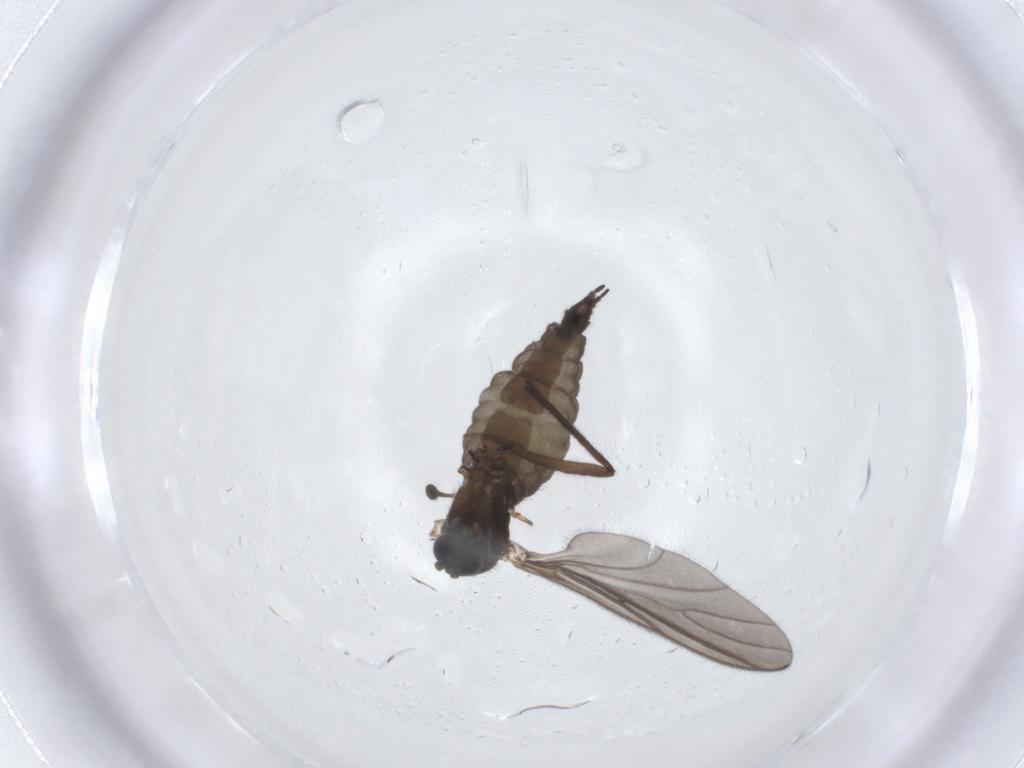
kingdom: Animalia
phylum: Arthropoda
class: Insecta
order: Diptera
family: Sciaridae
